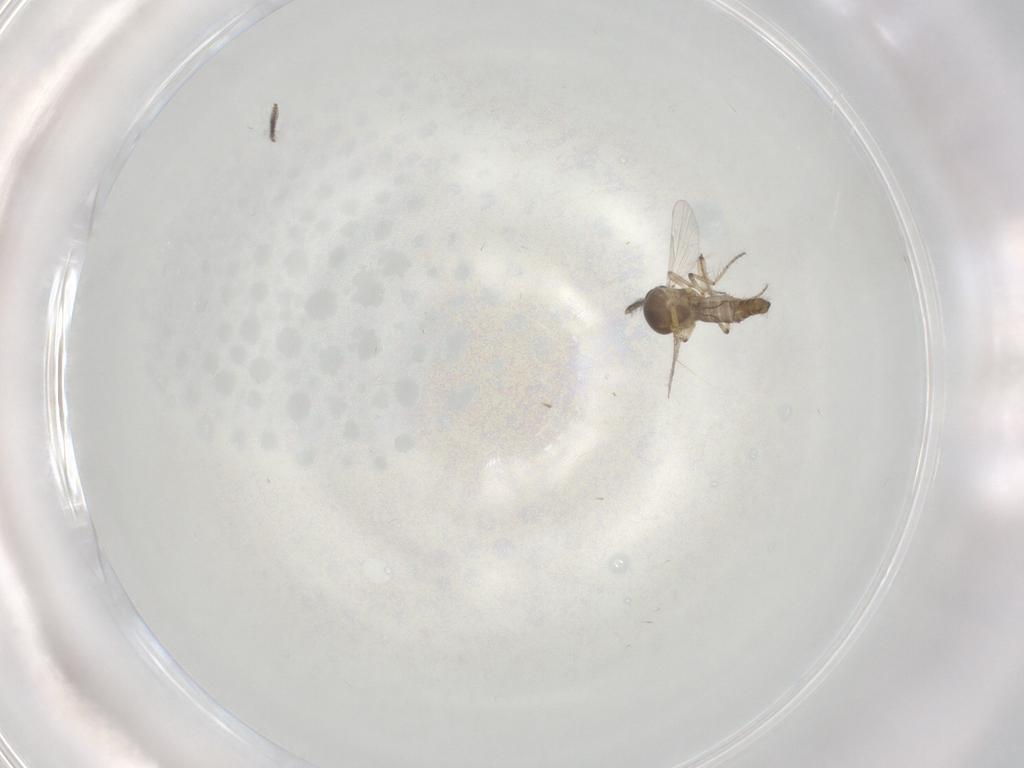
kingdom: Animalia
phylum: Arthropoda
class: Insecta
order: Diptera
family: Ceratopogonidae
